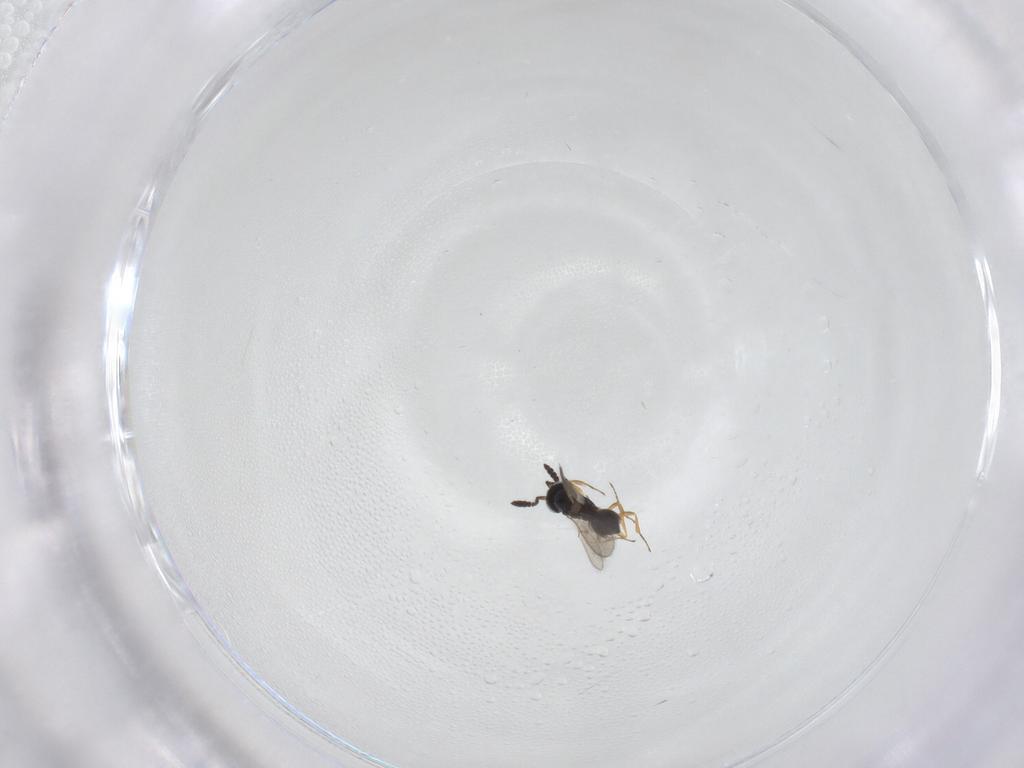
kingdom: Animalia
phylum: Arthropoda
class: Insecta
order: Hymenoptera
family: Scelionidae
